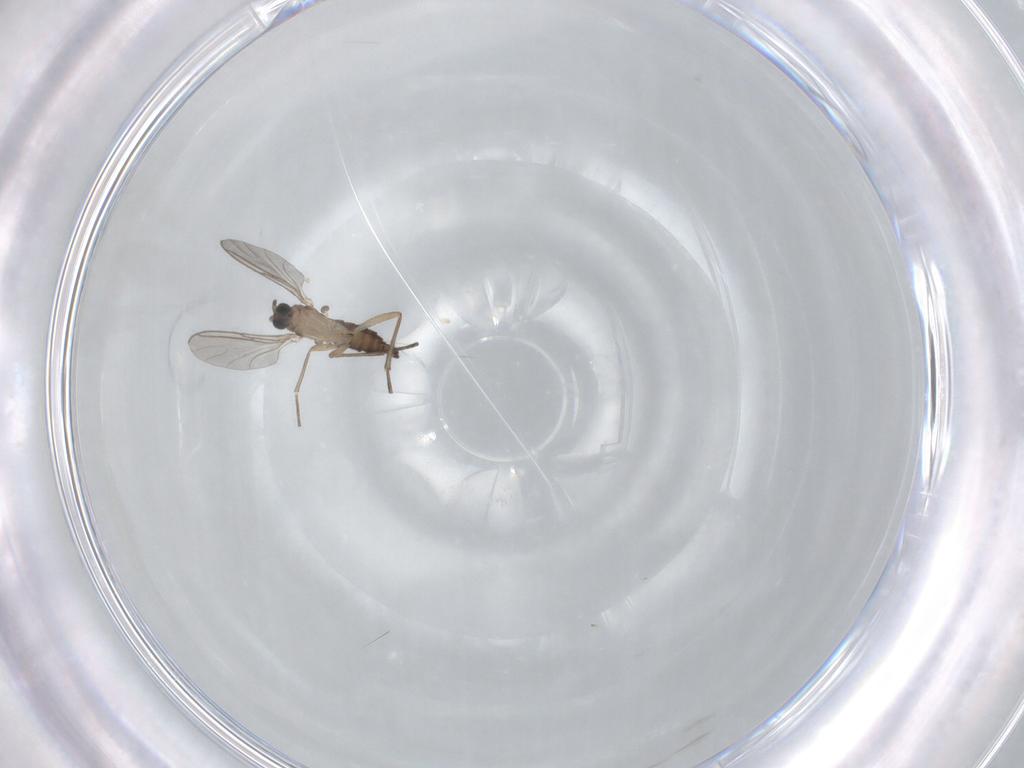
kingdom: Animalia
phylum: Arthropoda
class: Insecta
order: Diptera
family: Sciaridae
